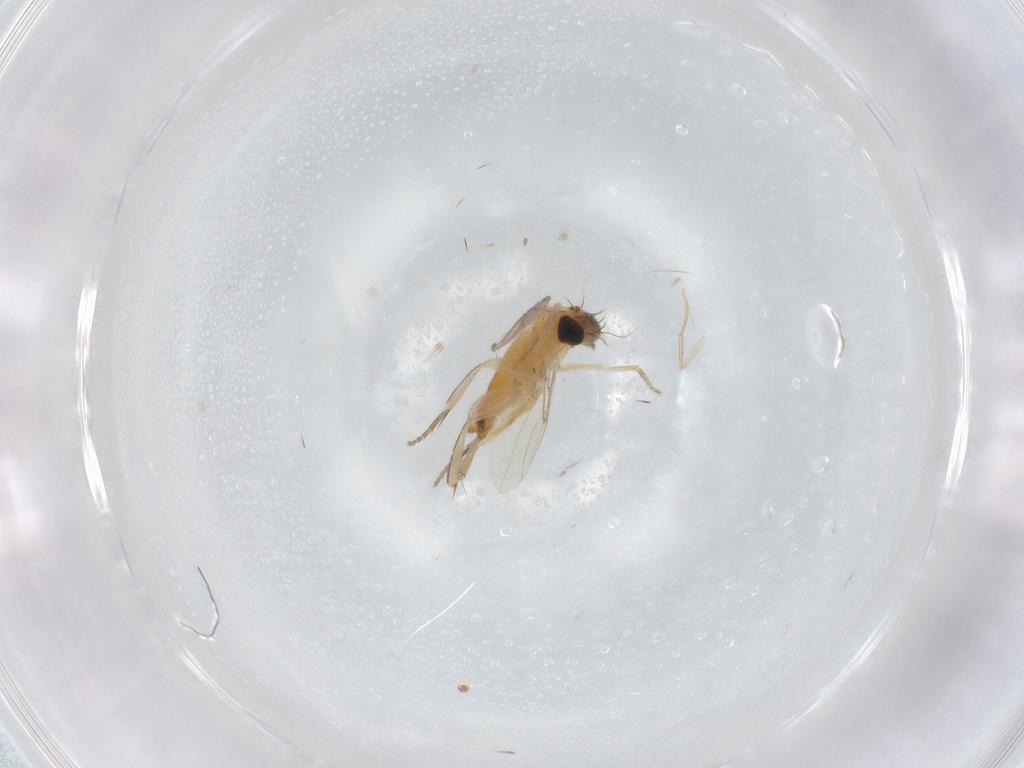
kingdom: Animalia
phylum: Arthropoda
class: Insecta
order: Diptera
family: Phoridae
